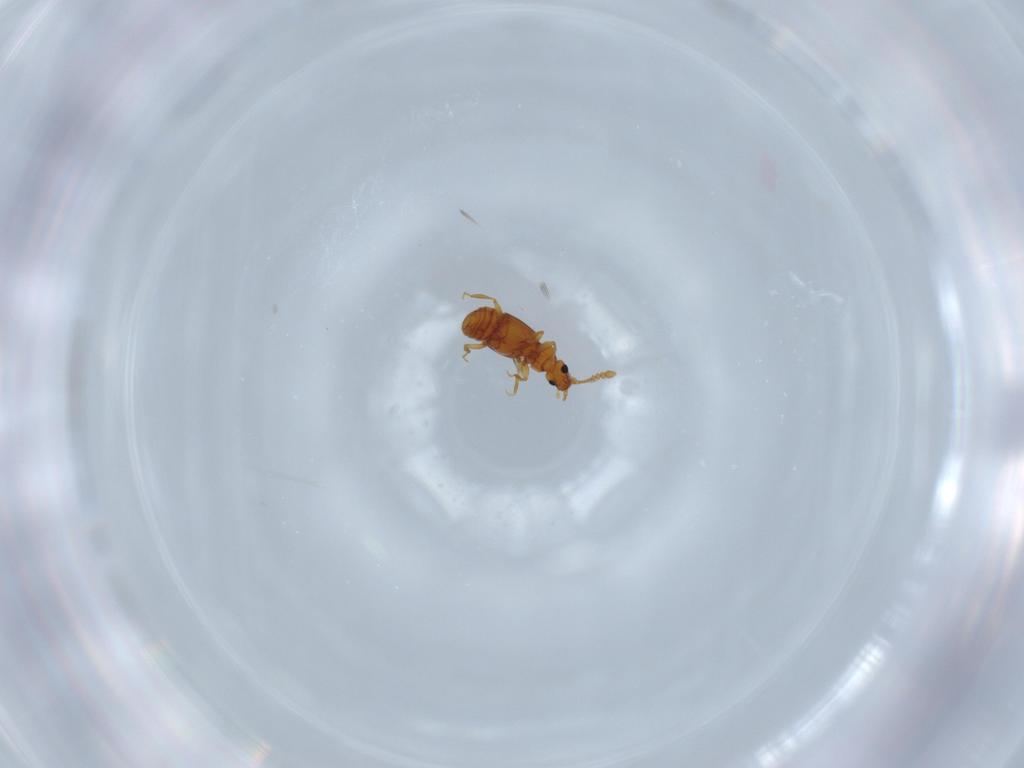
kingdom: Animalia
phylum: Arthropoda
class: Insecta
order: Coleoptera
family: Staphylinidae
